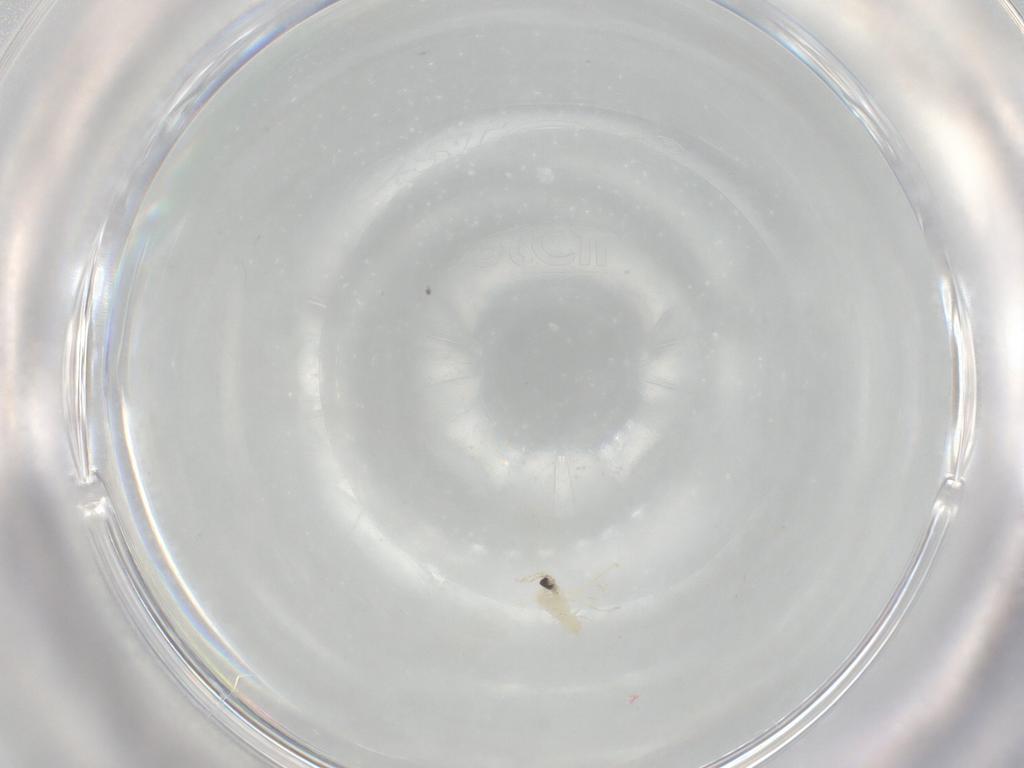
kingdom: Animalia
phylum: Arthropoda
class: Insecta
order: Diptera
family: Cecidomyiidae
